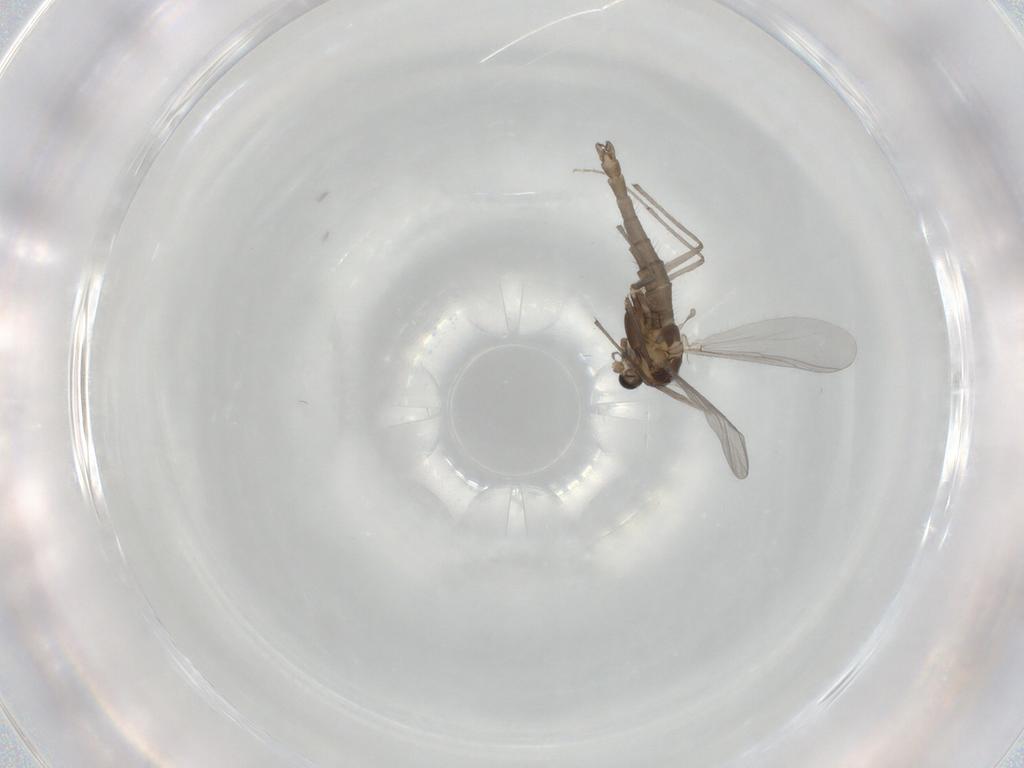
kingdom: Animalia
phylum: Arthropoda
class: Insecta
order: Diptera
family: Chironomidae
